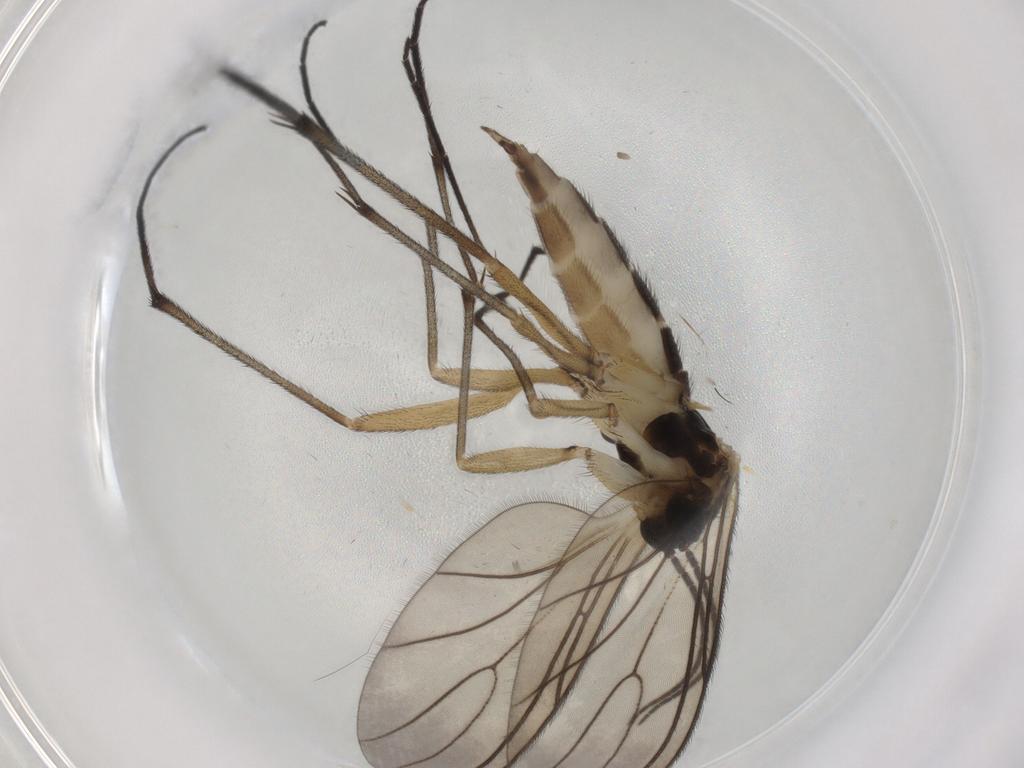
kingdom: Animalia
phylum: Arthropoda
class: Insecta
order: Diptera
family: Sciaridae
